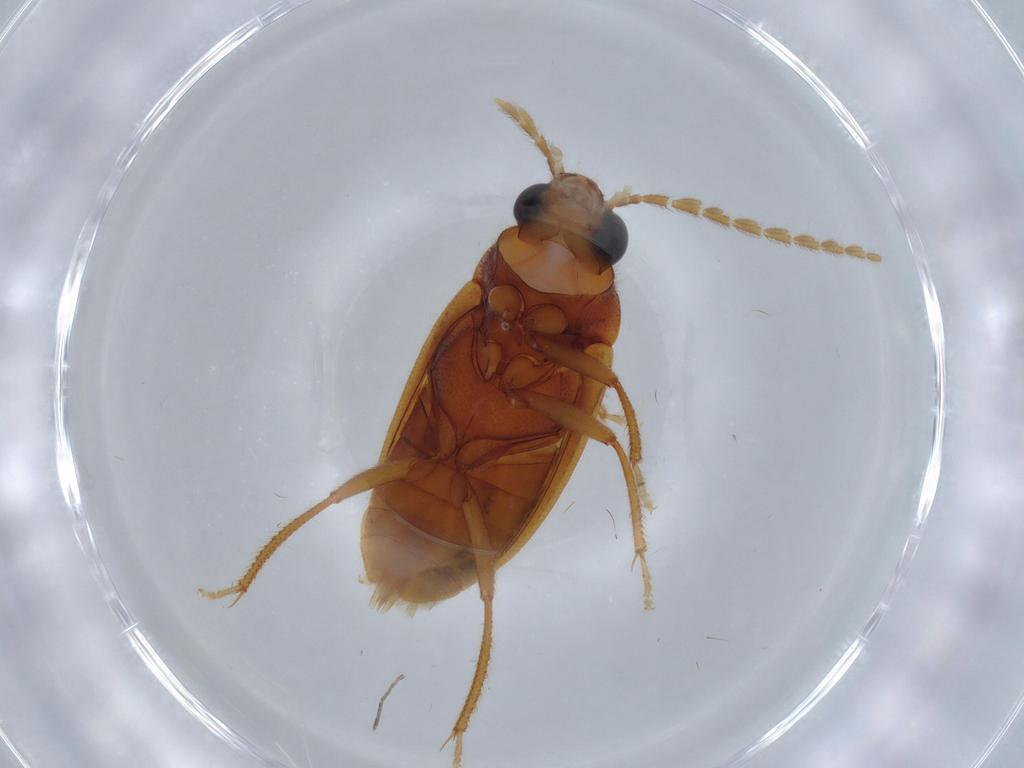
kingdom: Animalia
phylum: Arthropoda
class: Insecta
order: Coleoptera
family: Ptilodactylidae
